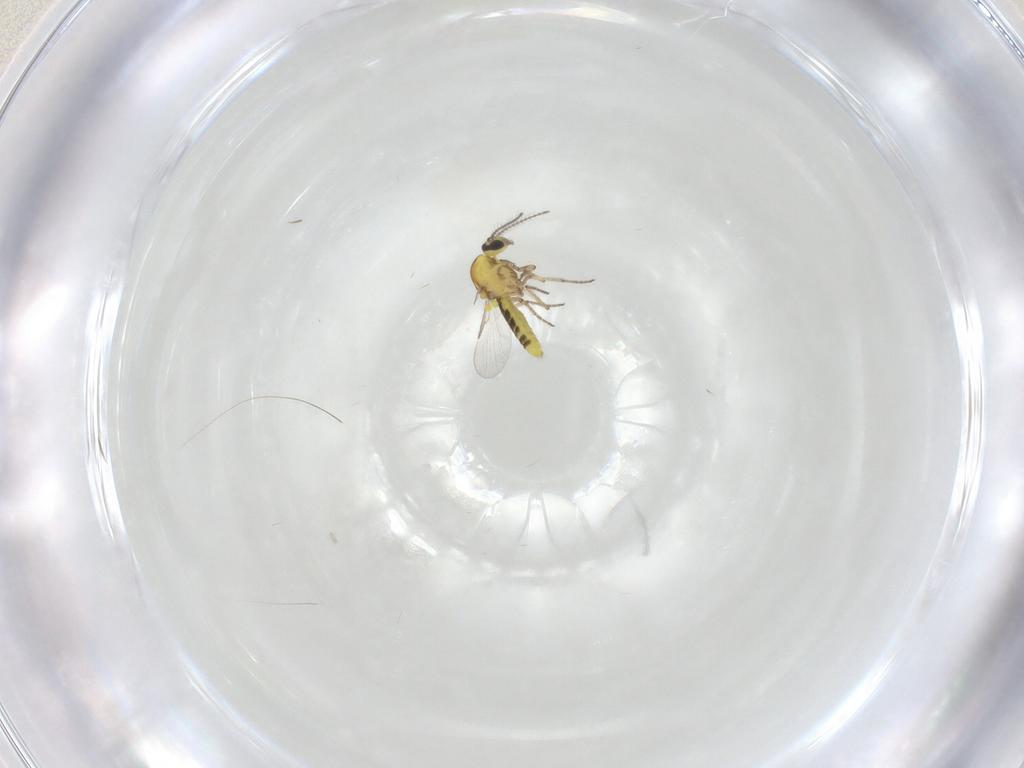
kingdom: Animalia
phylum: Arthropoda
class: Insecta
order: Diptera
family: Ceratopogonidae
